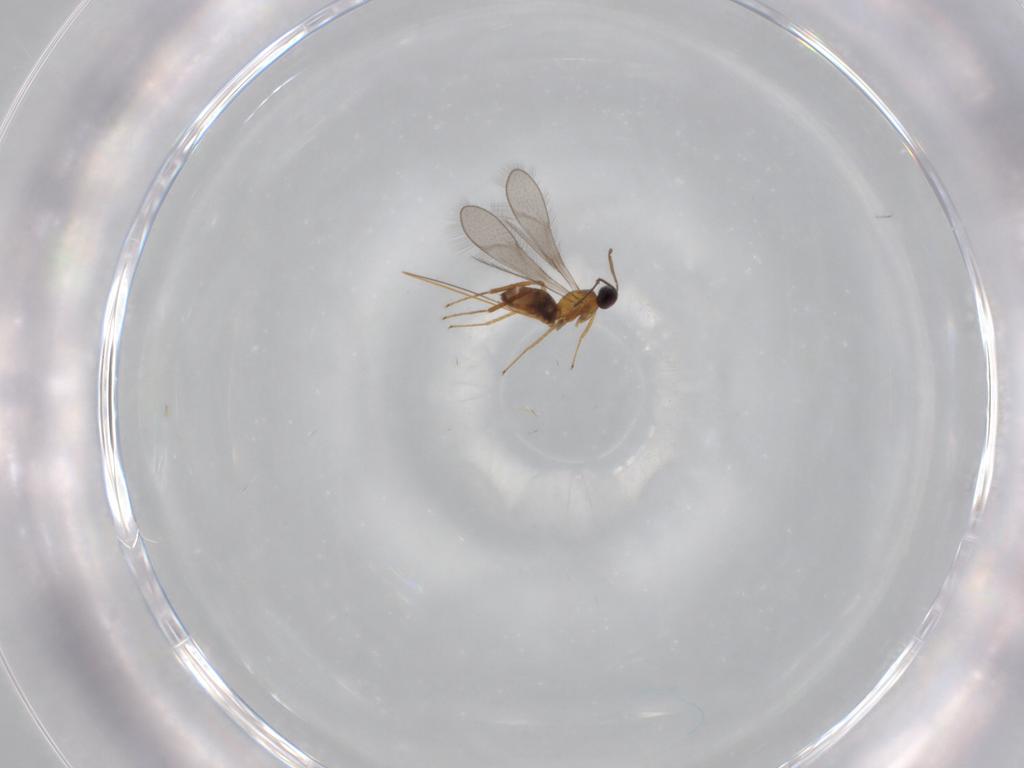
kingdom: Animalia
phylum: Arthropoda
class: Insecta
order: Hymenoptera
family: Mymaridae
